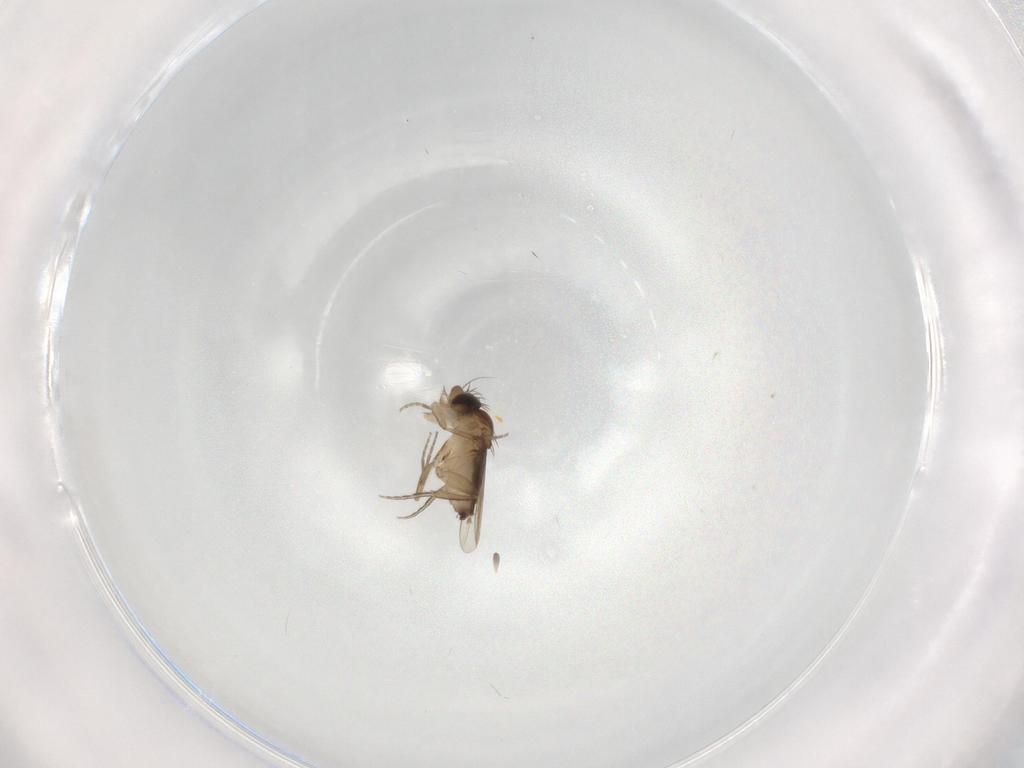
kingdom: Animalia
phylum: Arthropoda
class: Insecta
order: Diptera
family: Phoridae
